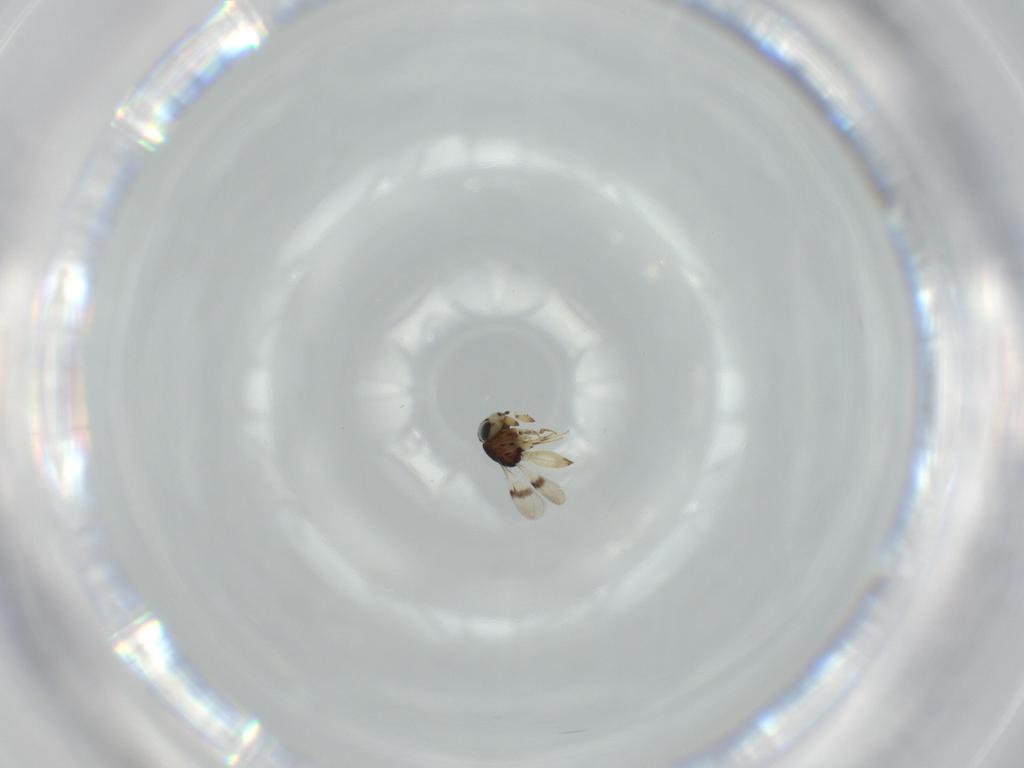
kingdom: Animalia
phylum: Arthropoda
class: Insecta
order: Hymenoptera
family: Scelionidae
